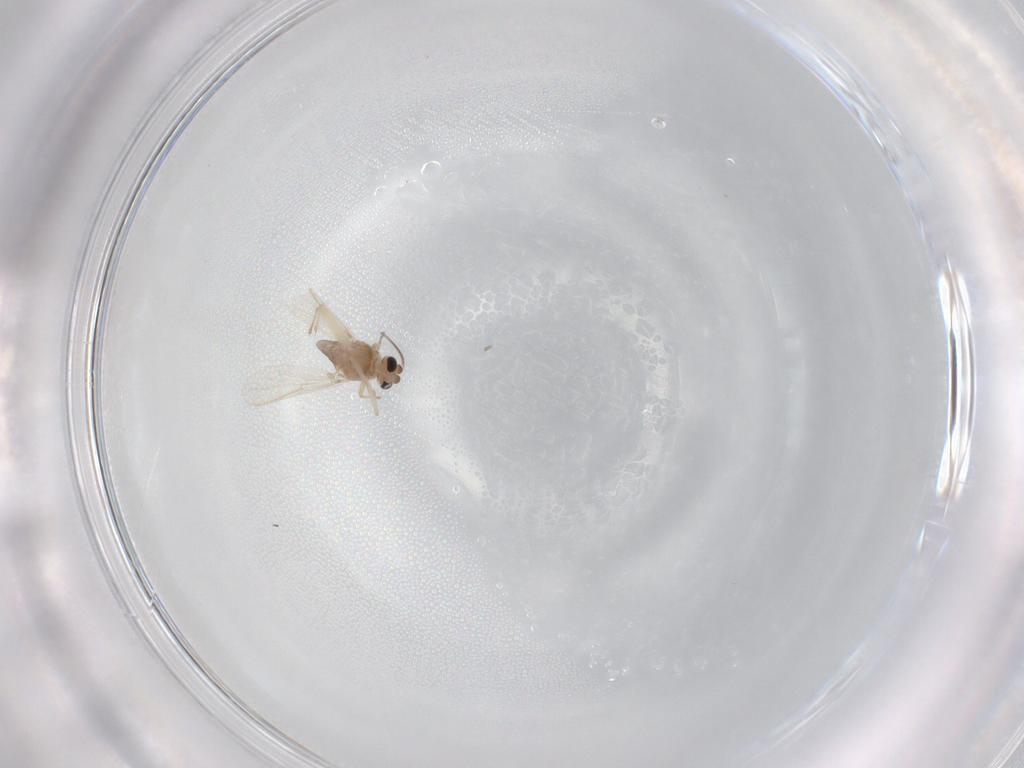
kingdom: Animalia
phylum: Arthropoda
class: Insecta
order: Diptera
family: Chironomidae
